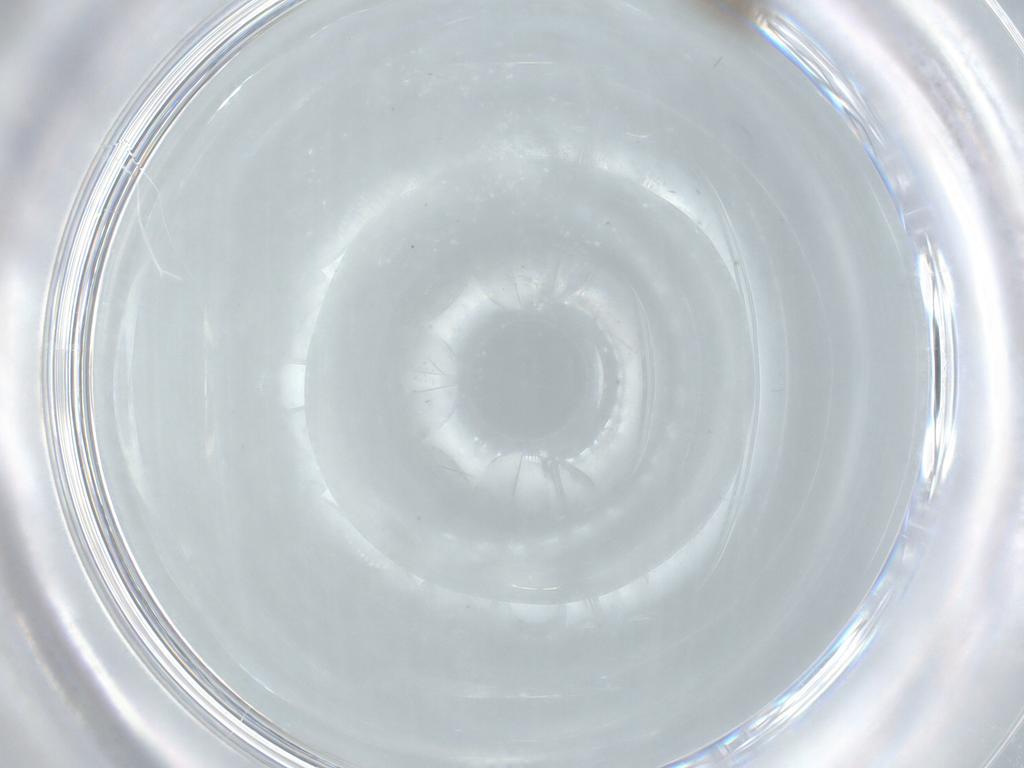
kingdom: Animalia
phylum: Arthropoda
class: Insecta
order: Diptera
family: Cecidomyiidae
